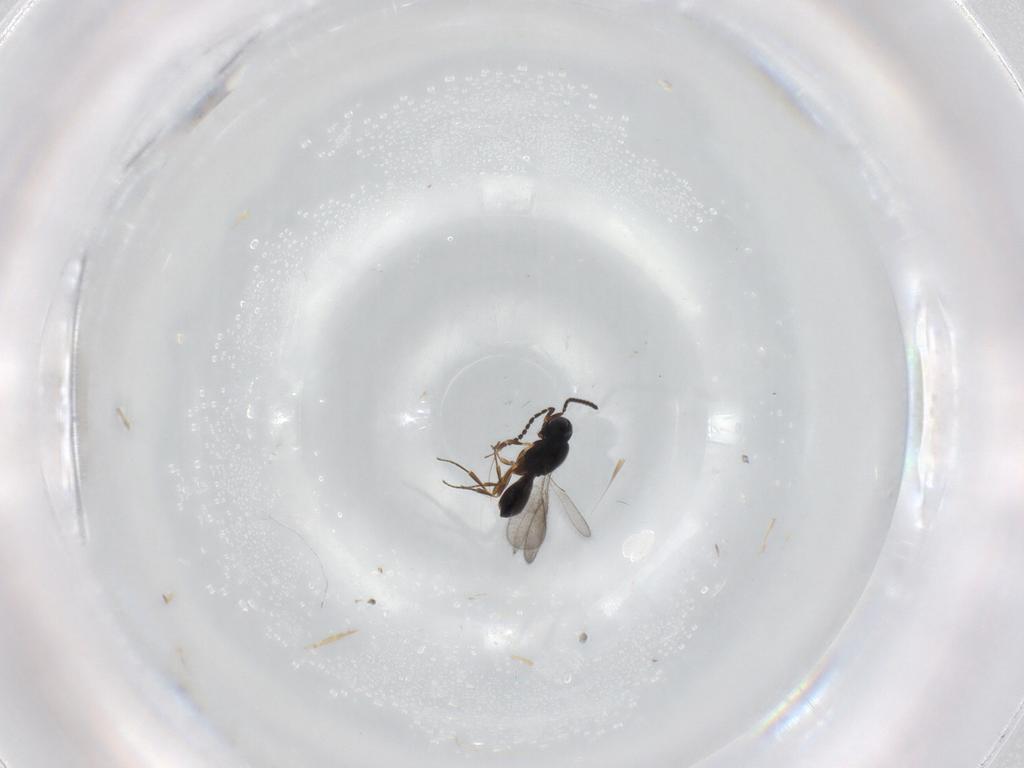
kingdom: Animalia
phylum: Arthropoda
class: Insecta
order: Hymenoptera
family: Scelionidae
